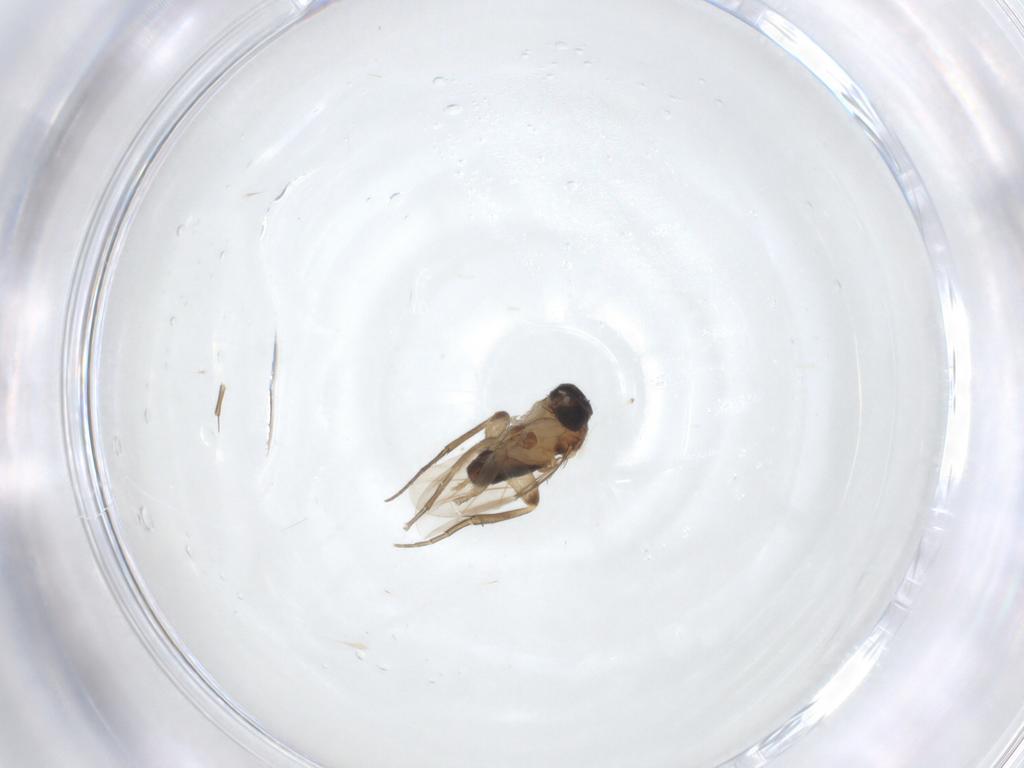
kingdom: Animalia
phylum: Arthropoda
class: Insecta
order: Diptera
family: Phoridae
